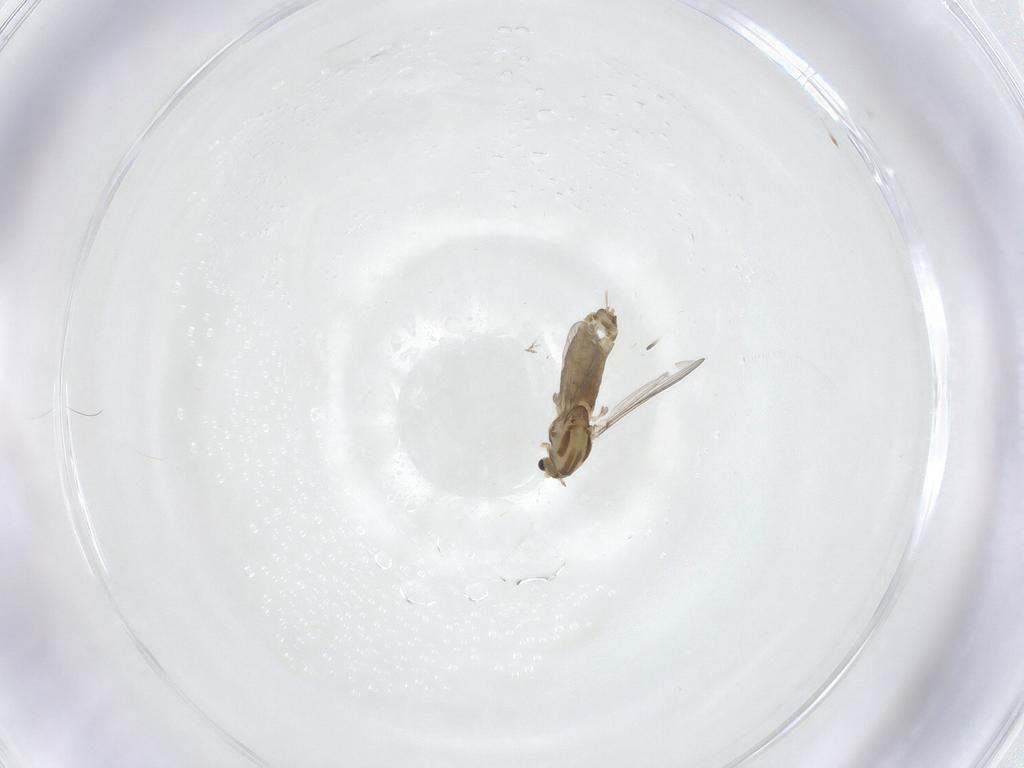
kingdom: Animalia
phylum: Arthropoda
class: Insecta
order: Diptera
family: Chironomidae
